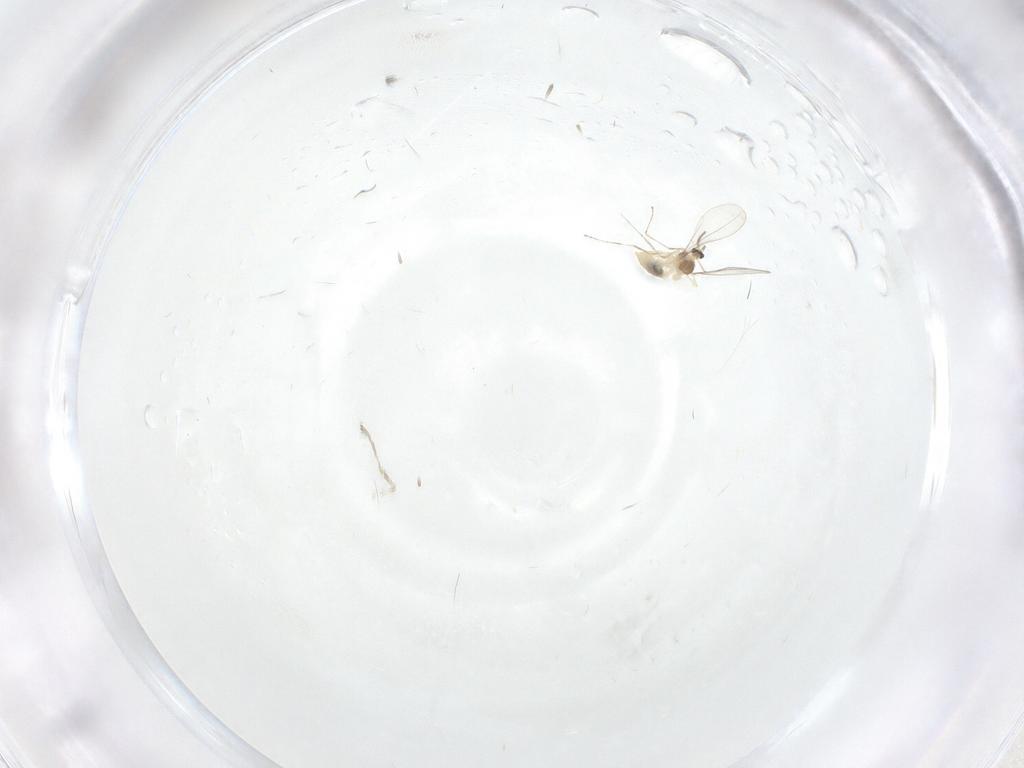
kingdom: Animalia
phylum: Arthropoda
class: Insecta
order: Diptera
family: Cecidomyiidae
